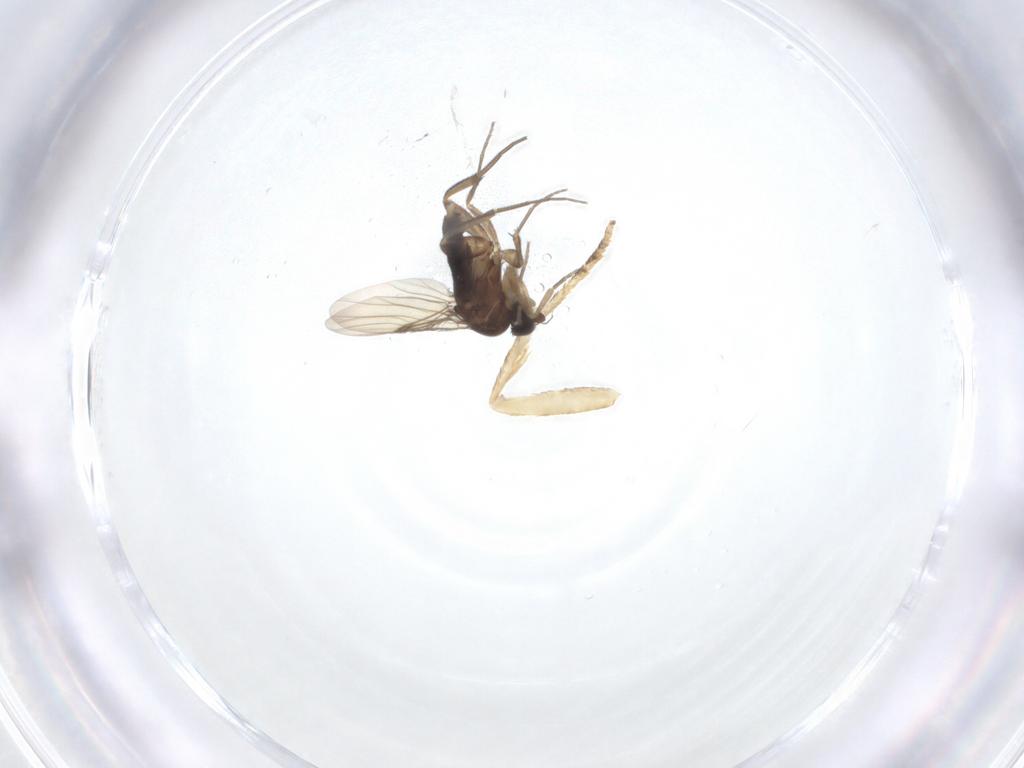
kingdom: Animalia
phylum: Arthropoda
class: Insecta
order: Diptera
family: Phoridae
